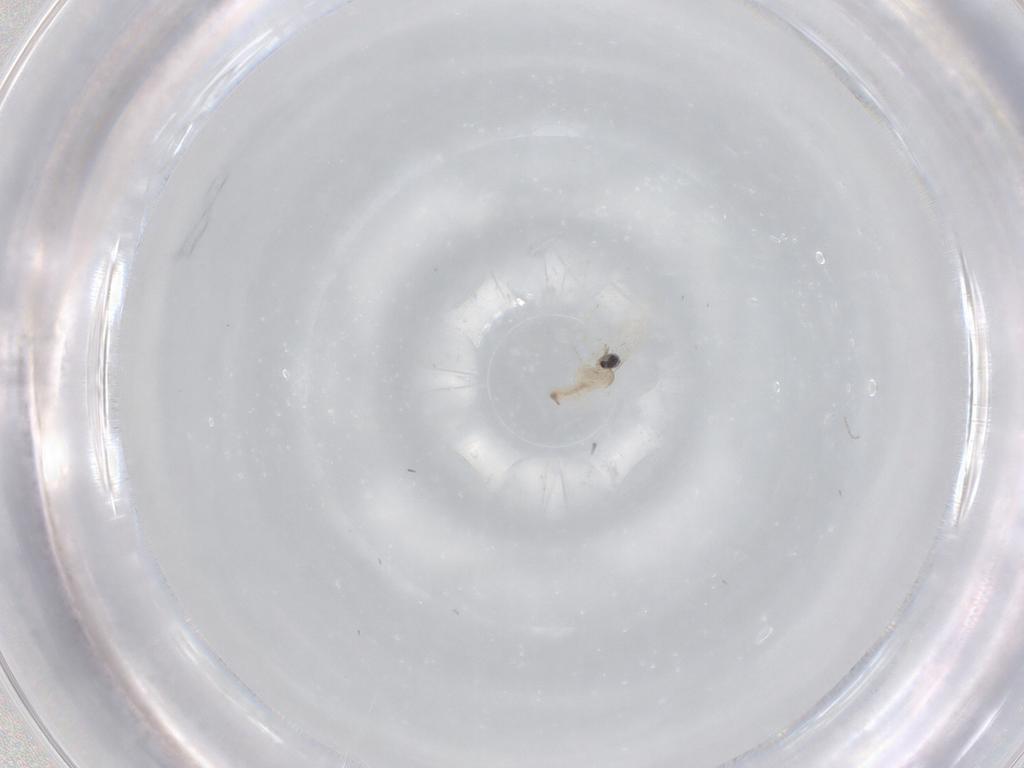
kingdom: Animalia
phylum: Arthropoda
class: Insecta
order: Diptera
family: Cecidomyiidae
